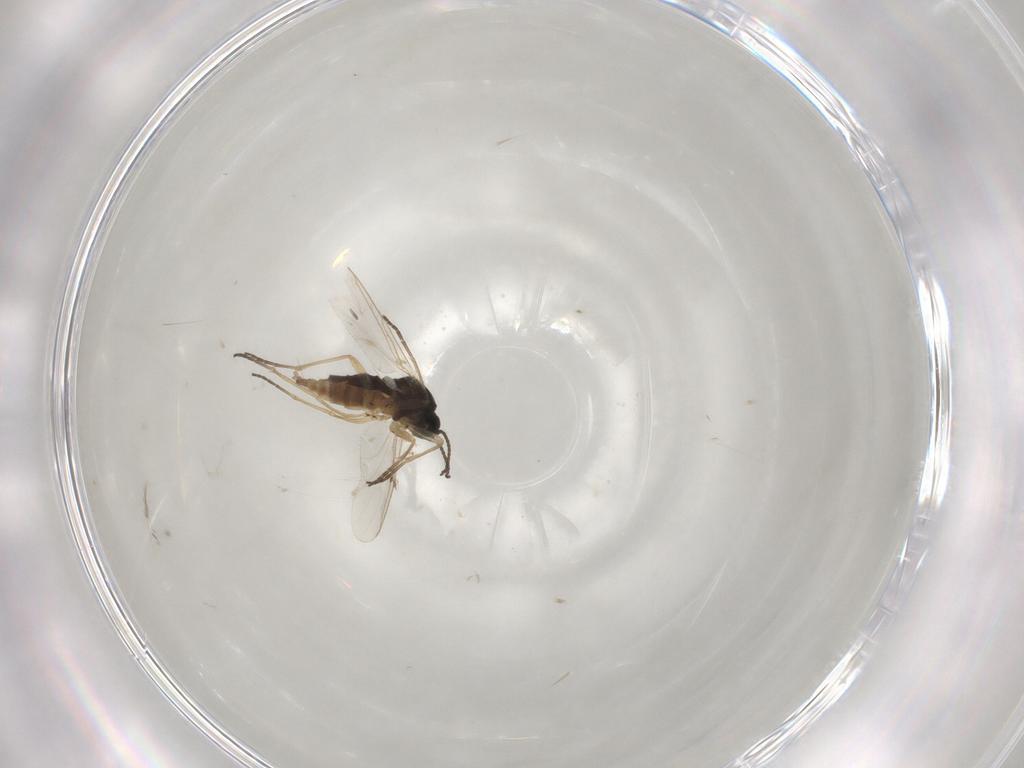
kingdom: Animalia
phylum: Arthropoda
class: Insecta
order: Diptera
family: Sciaridae
